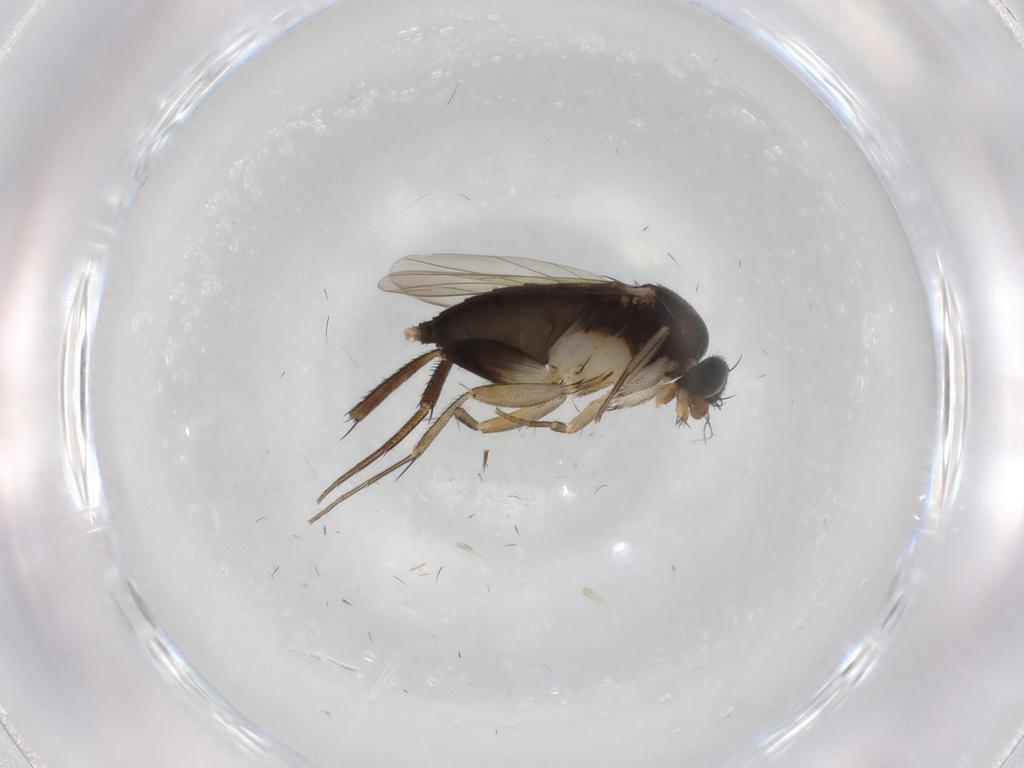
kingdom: Animalia
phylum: Arthropoda
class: Insecta
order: Diptera
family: Phoridae
